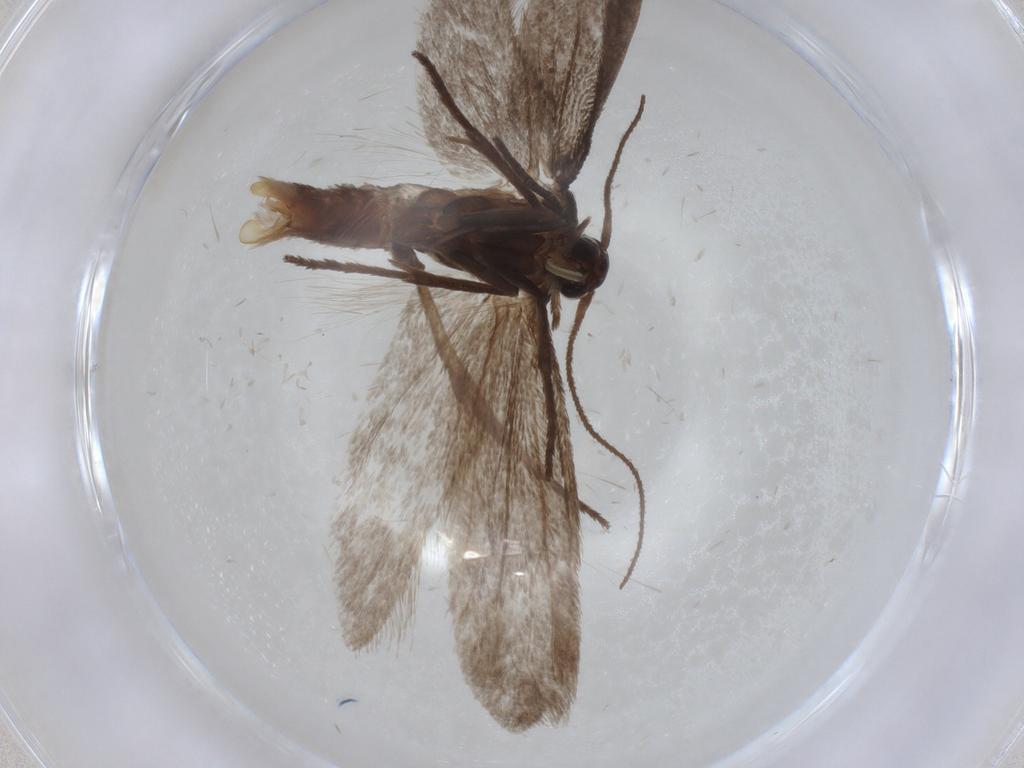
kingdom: Animalia
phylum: Arthropoda
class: Insecta
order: Lepidoptera
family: Limacodidae
